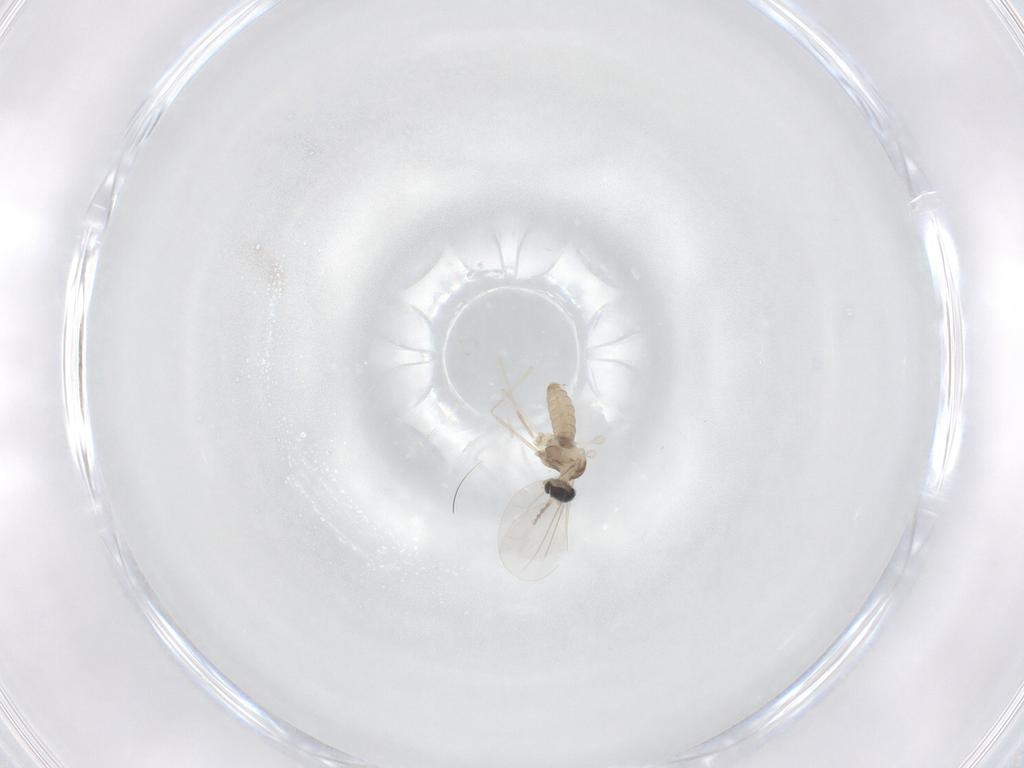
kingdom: Animalia
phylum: Arthropoda
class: Insecta
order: Diptera
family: Cecidomyiidae
